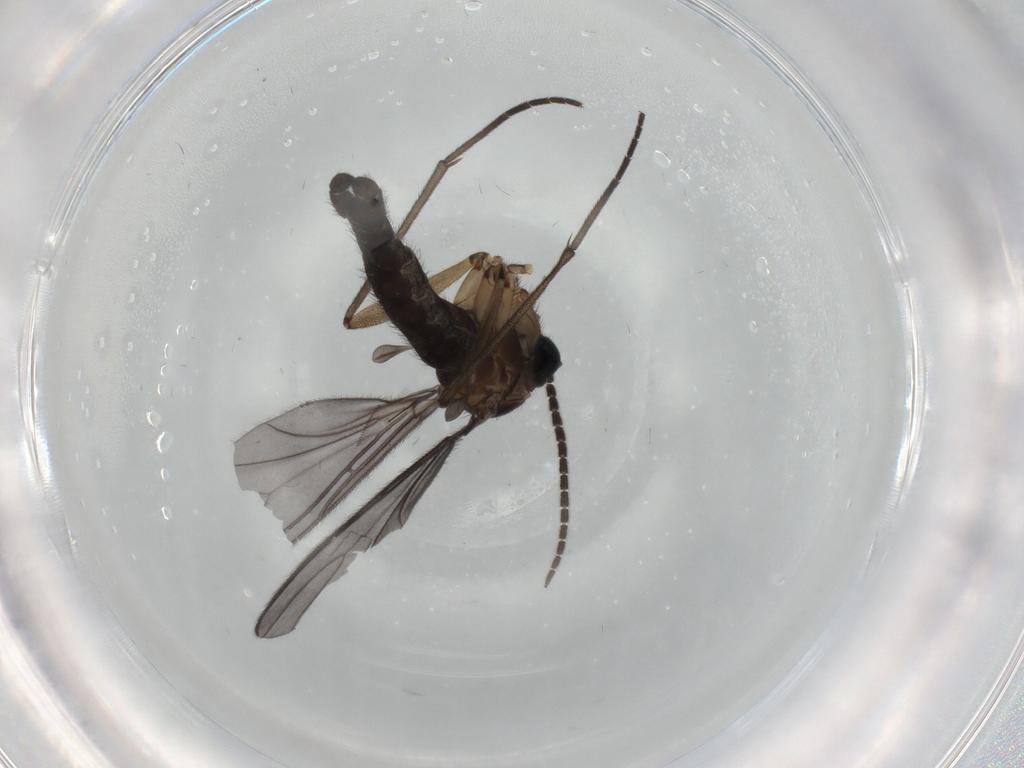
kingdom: Animalia
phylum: Arthropoda
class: Insecta
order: Diptera
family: Sciaridae
